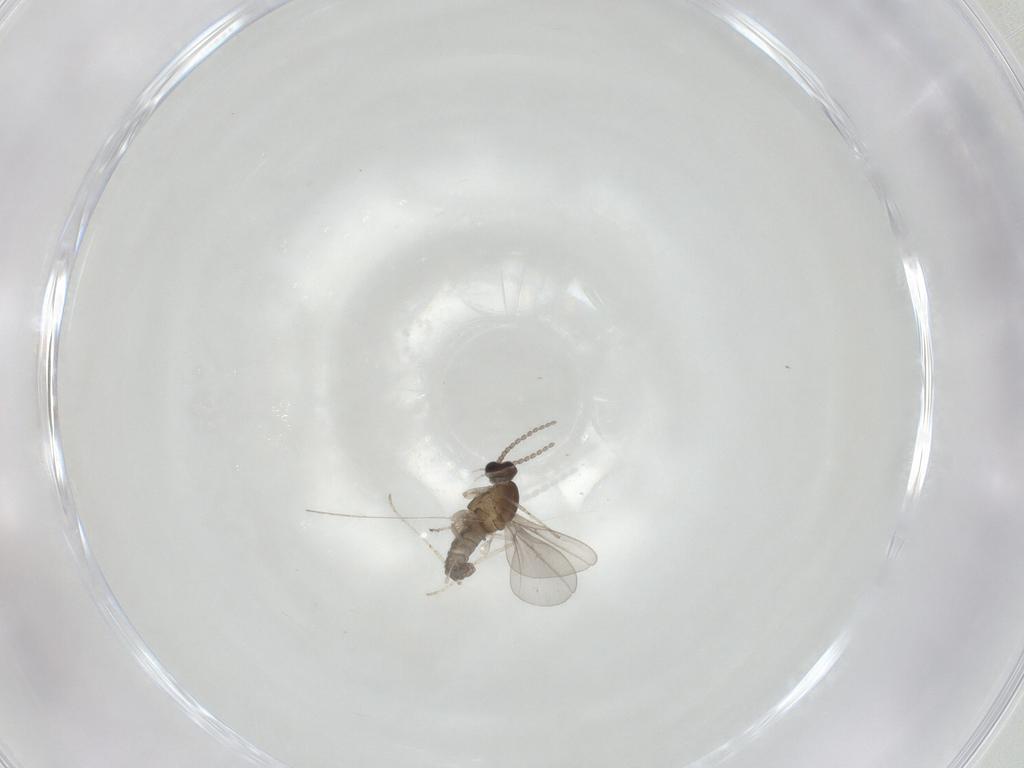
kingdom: Animalia
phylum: Arthropoda
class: Insecta
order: Diptera
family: Cecidomyiidae
